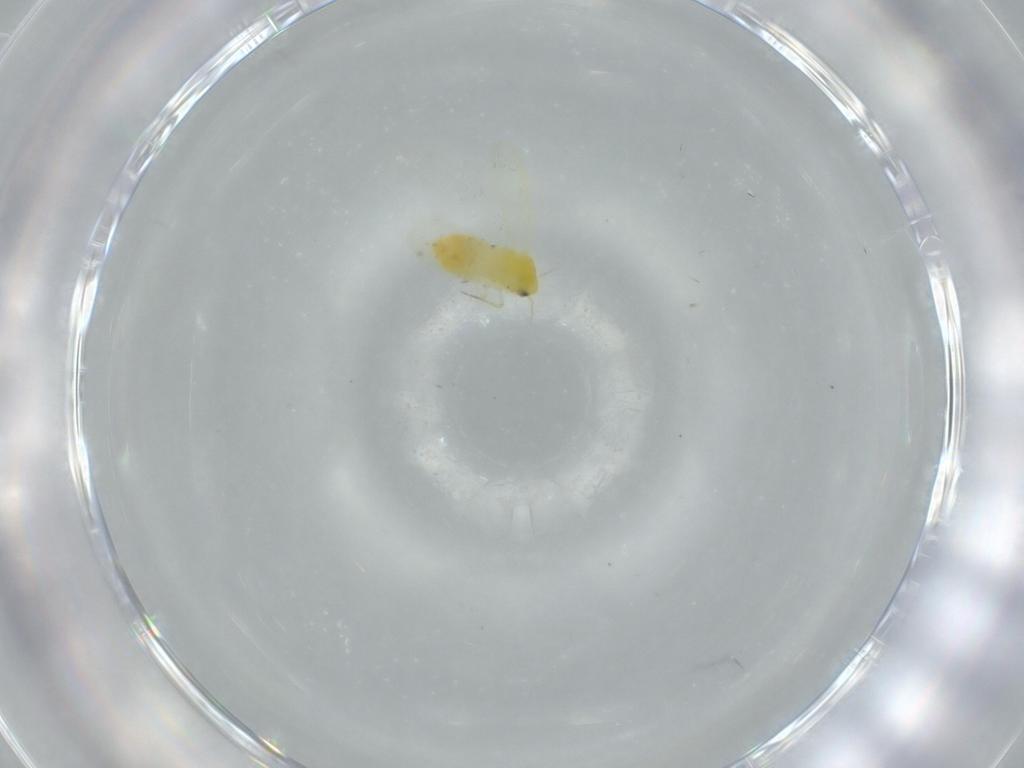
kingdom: Animalia
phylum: Arthropoda
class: Insecta
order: Hemiptera
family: Aleyrodidae
